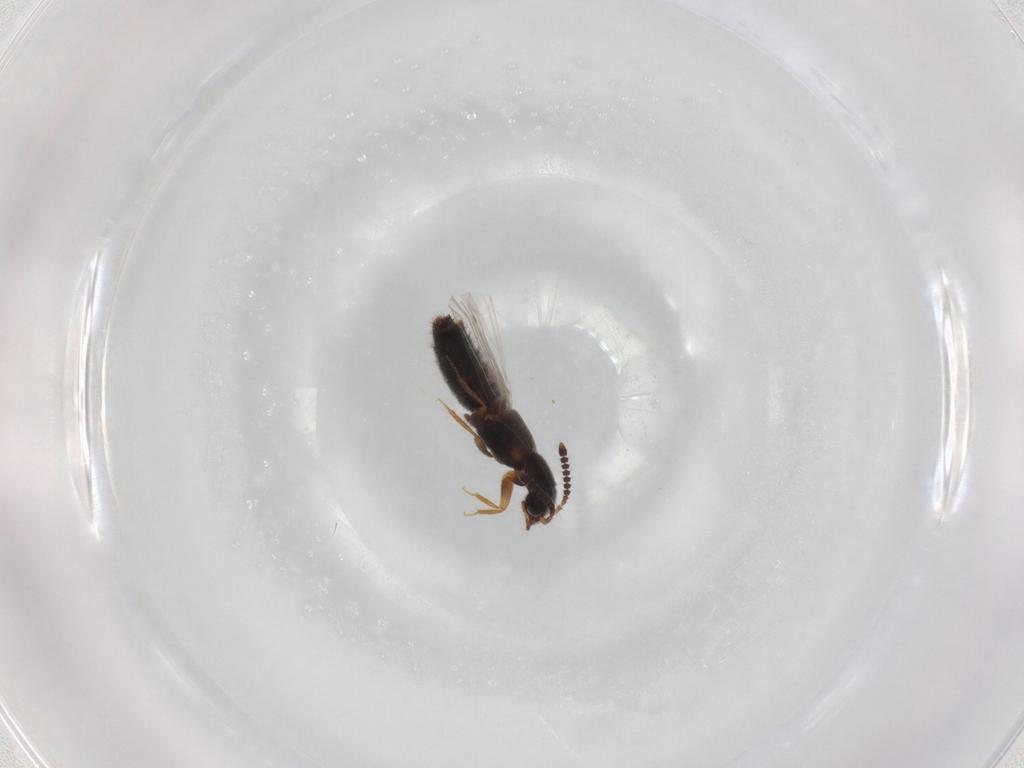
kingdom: Animalia
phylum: Arthropoda
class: Insecta
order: Coleoptera
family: Staphylinidae
